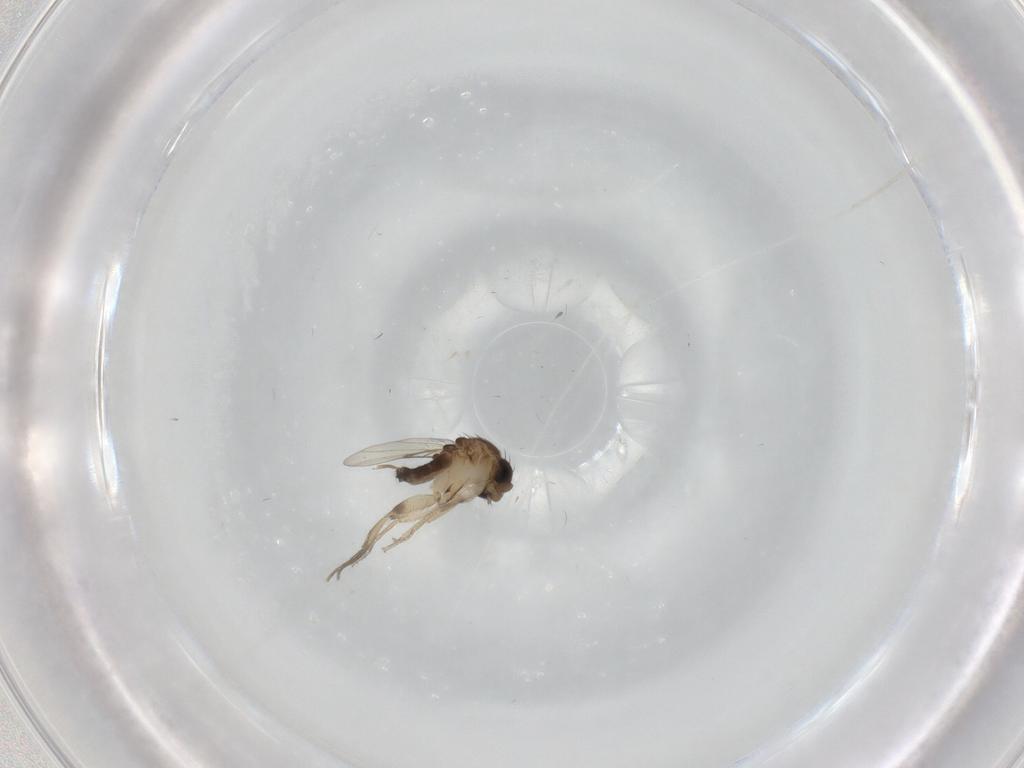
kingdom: Animalia
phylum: Arthropoda
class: Insecta
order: Diptera
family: Phoridae
